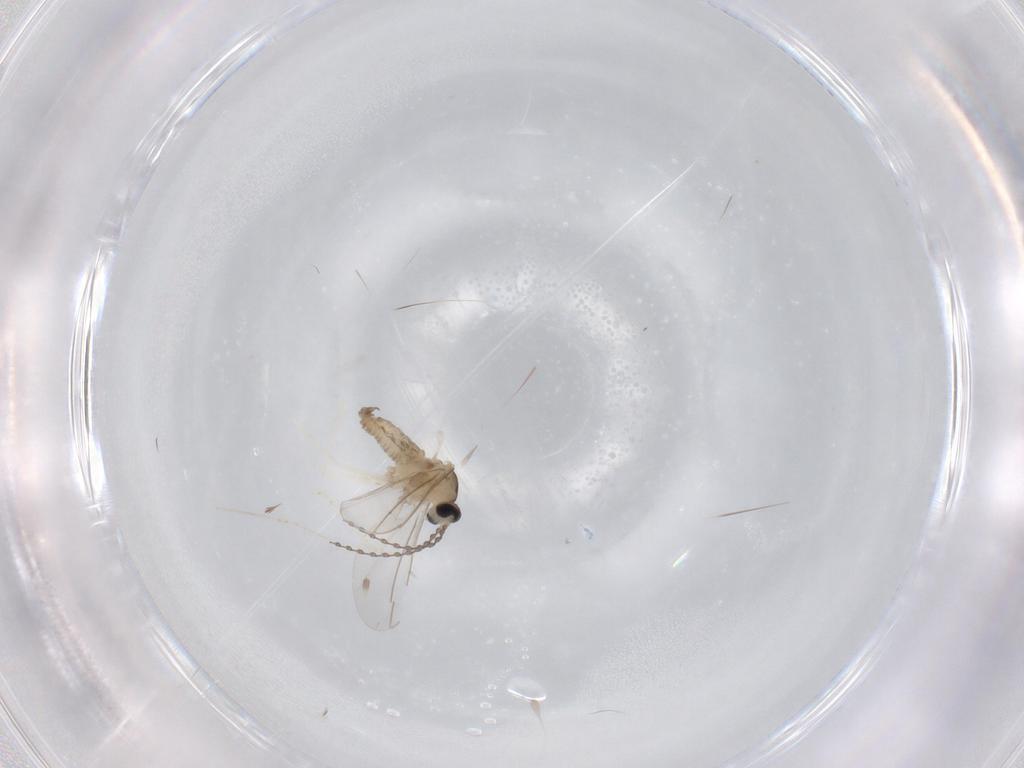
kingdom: Animalia
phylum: Arthropoda
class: Insecta
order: Diptera
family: Cecidomyiidae
